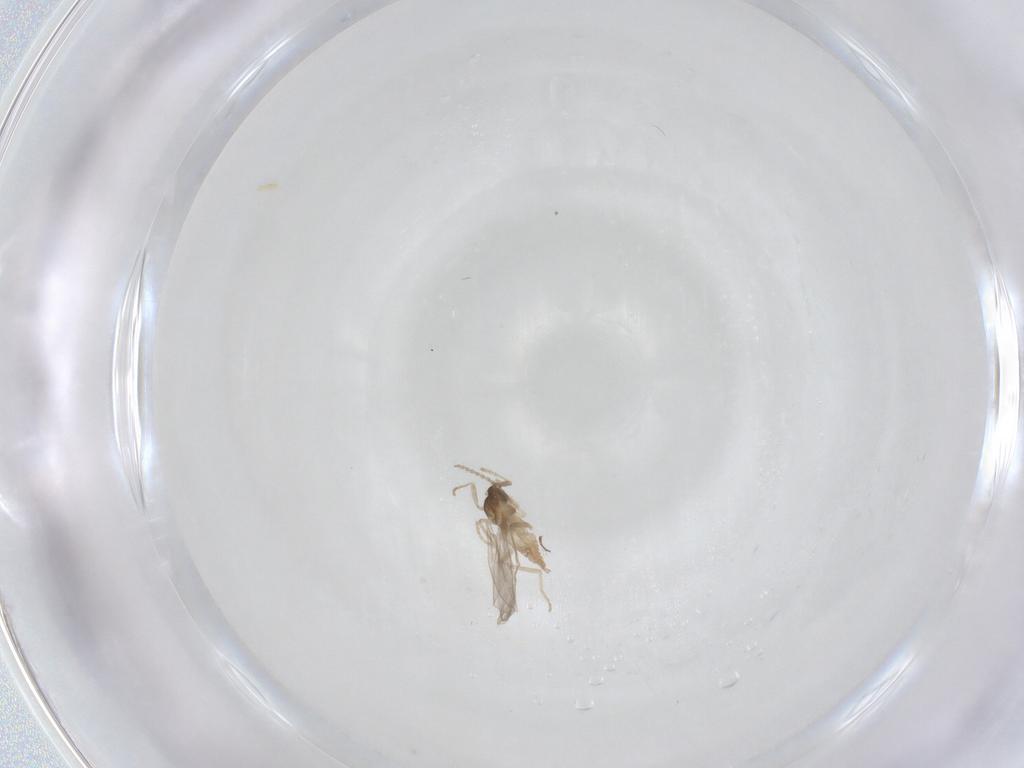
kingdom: Animalia
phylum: Arthropoda
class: Insecta
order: Diptera
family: Cecidomyiidae
